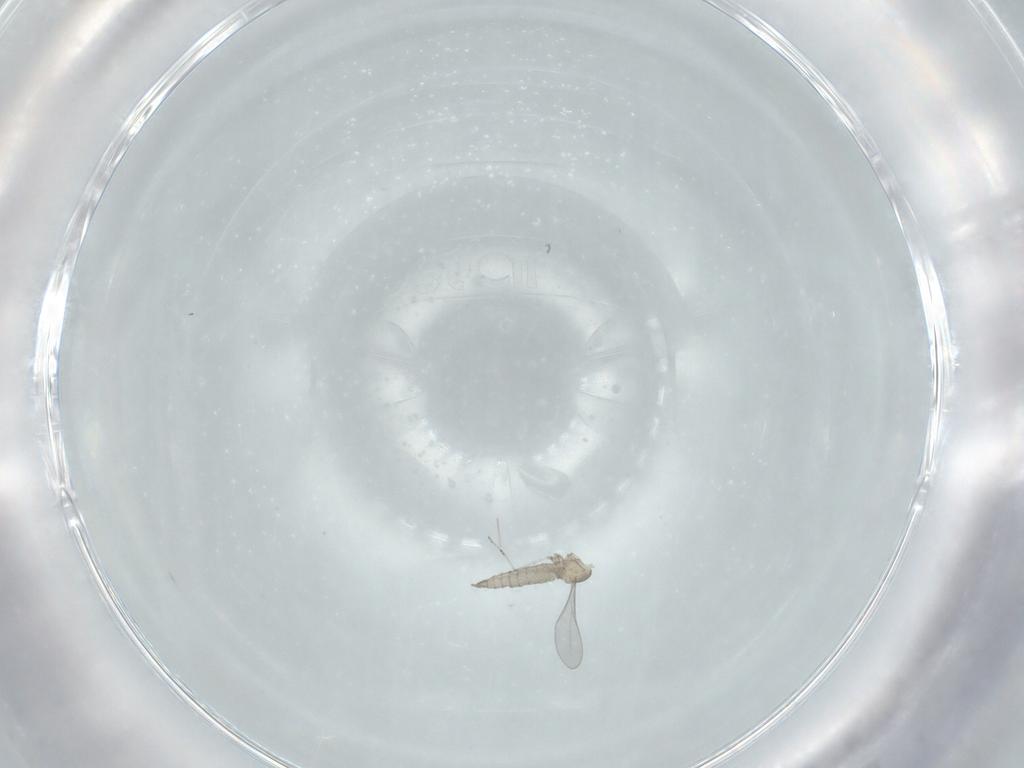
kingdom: Animalia
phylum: Arthropoda
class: Insecta
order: Diptera
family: Cecidomyiidae
